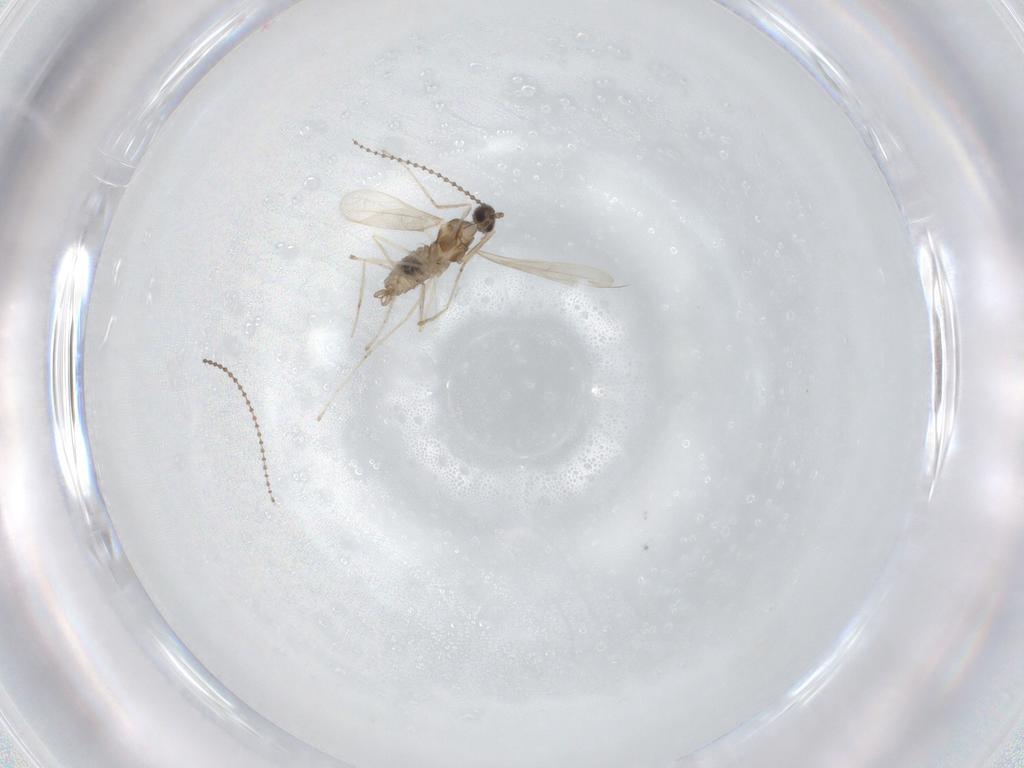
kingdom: Animalia
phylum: Arthropoda
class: Insecta
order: Diptera
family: Cecidomyiidae
